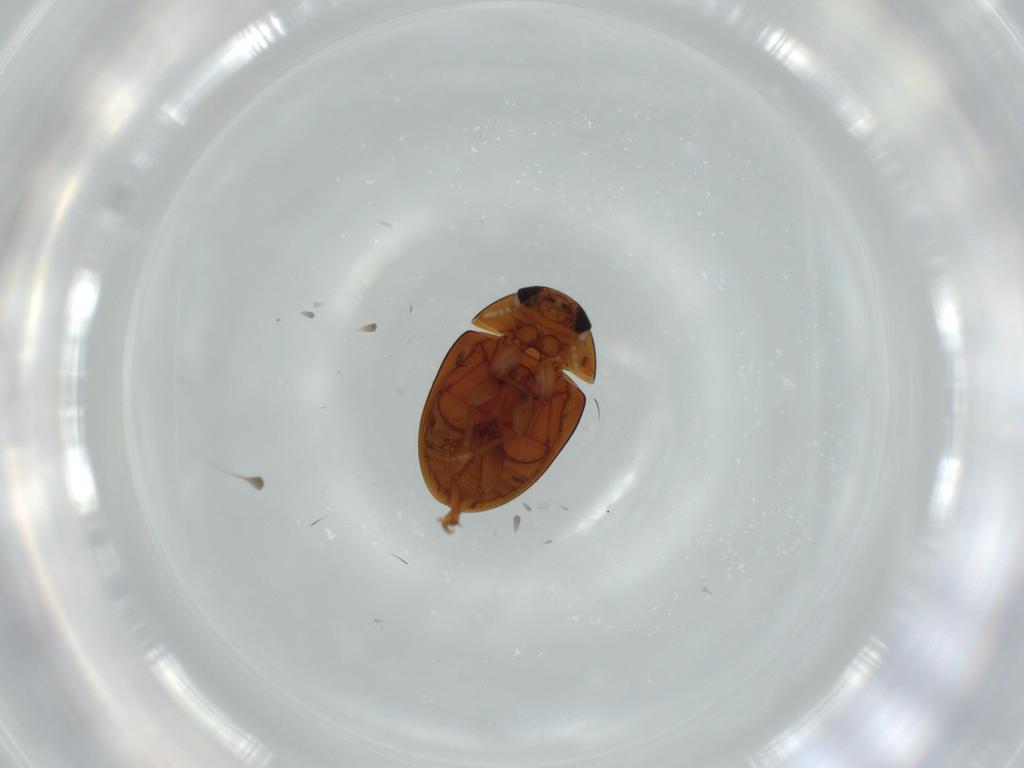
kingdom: Animalia
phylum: Arthropoda
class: Insecta
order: Coleoptera
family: Phalacridae
